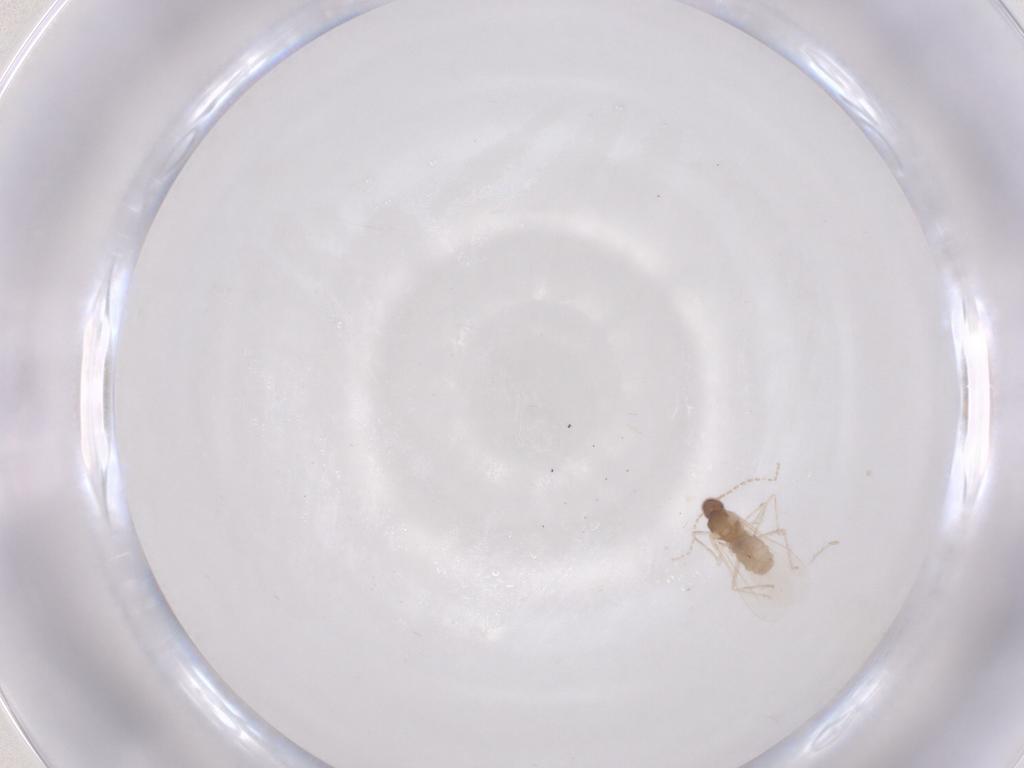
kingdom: Animalia
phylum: Arthropoda
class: Insecta
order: Diptera
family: Cecidomyiidae
